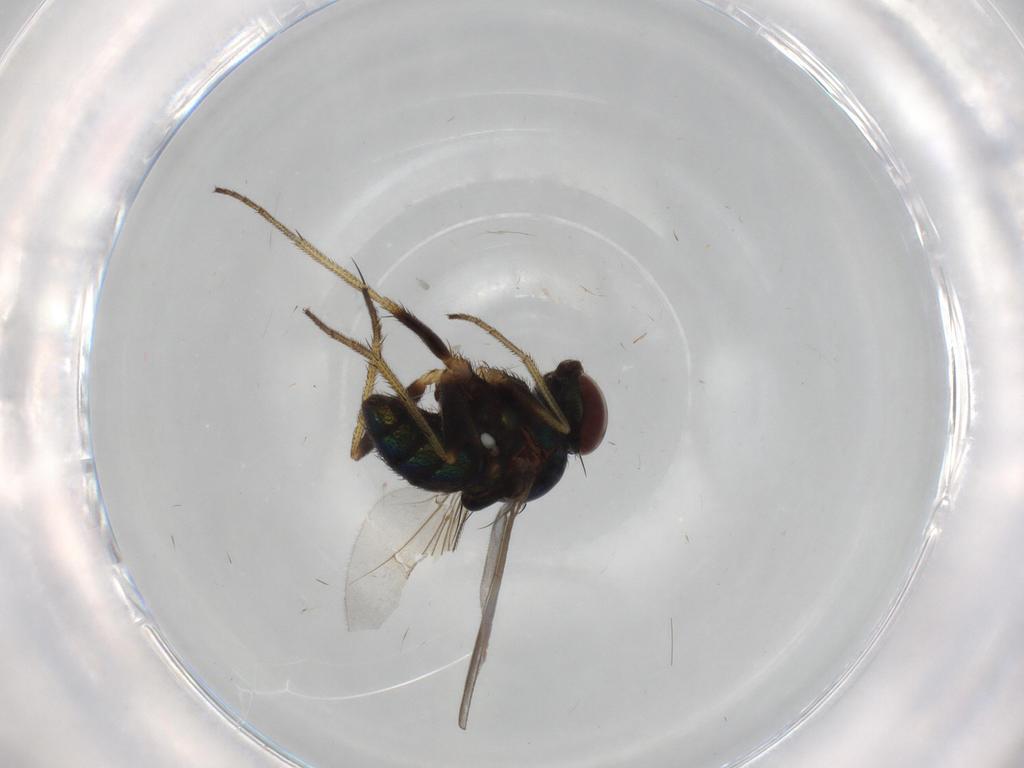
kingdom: Animalia
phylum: Arthropoda
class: Insecta
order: Diptera
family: Dolichopodidae
